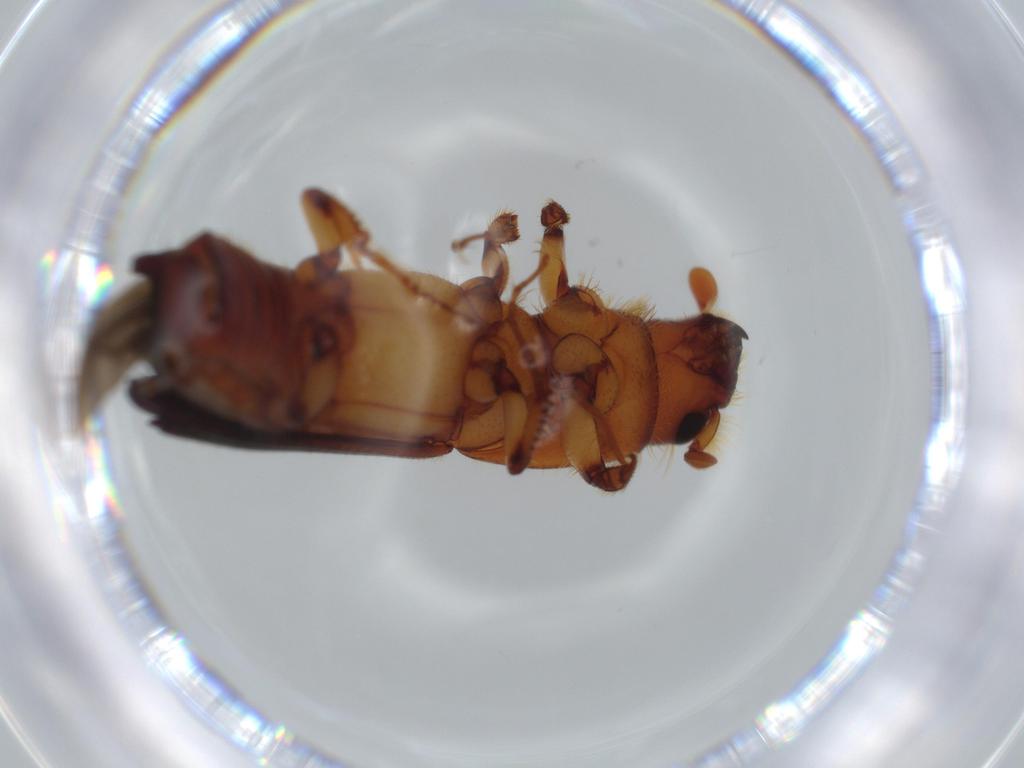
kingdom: Animalia
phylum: Arthropoda
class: Insecta
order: Coleoptera
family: Curculionidae
